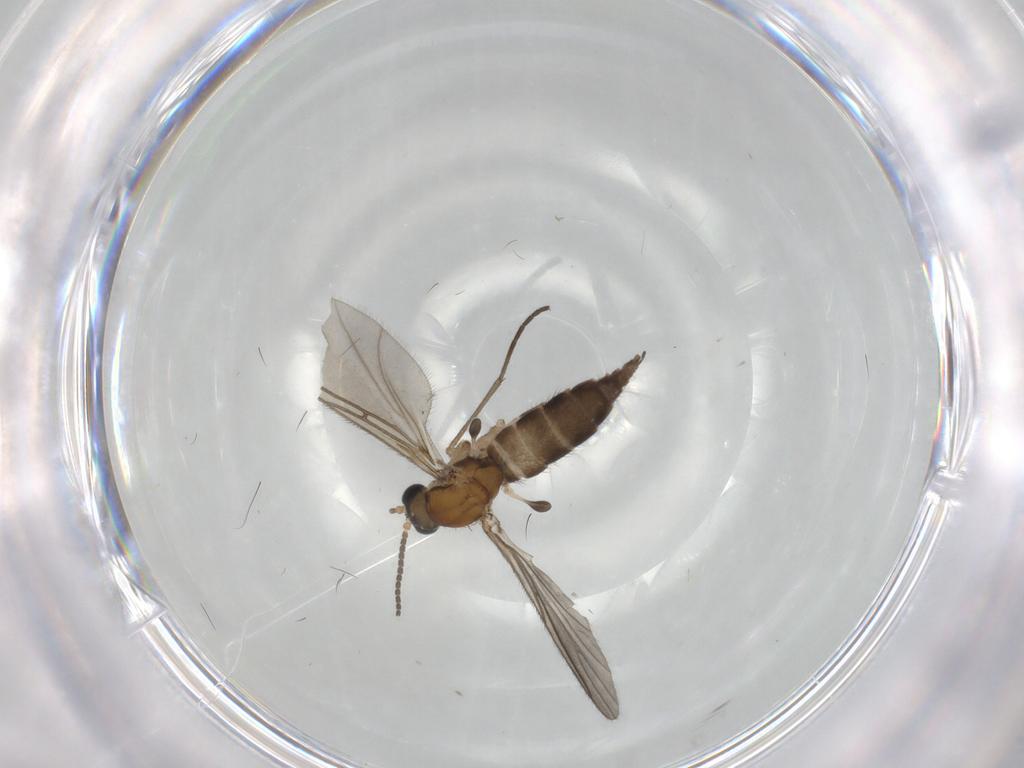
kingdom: Animalia
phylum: Arthropoda
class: Insecta
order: Diptera
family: Sciaridae
